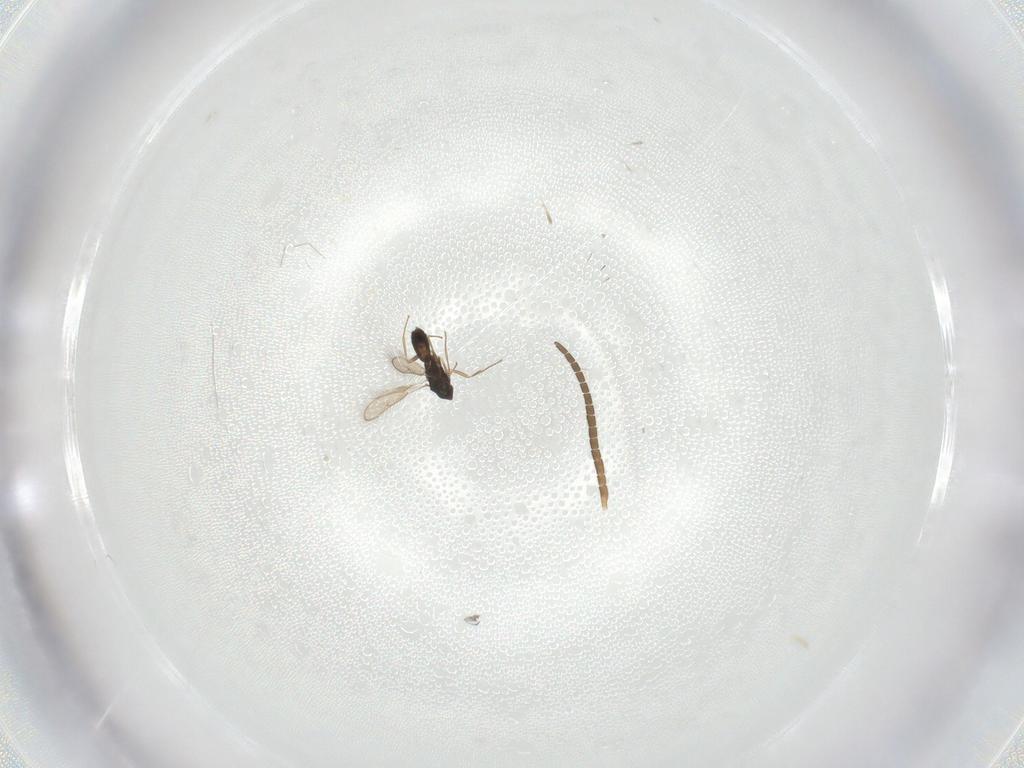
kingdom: Animalia
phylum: Arthropoda
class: Insecta
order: Hymenoptera
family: Pteromalidae
